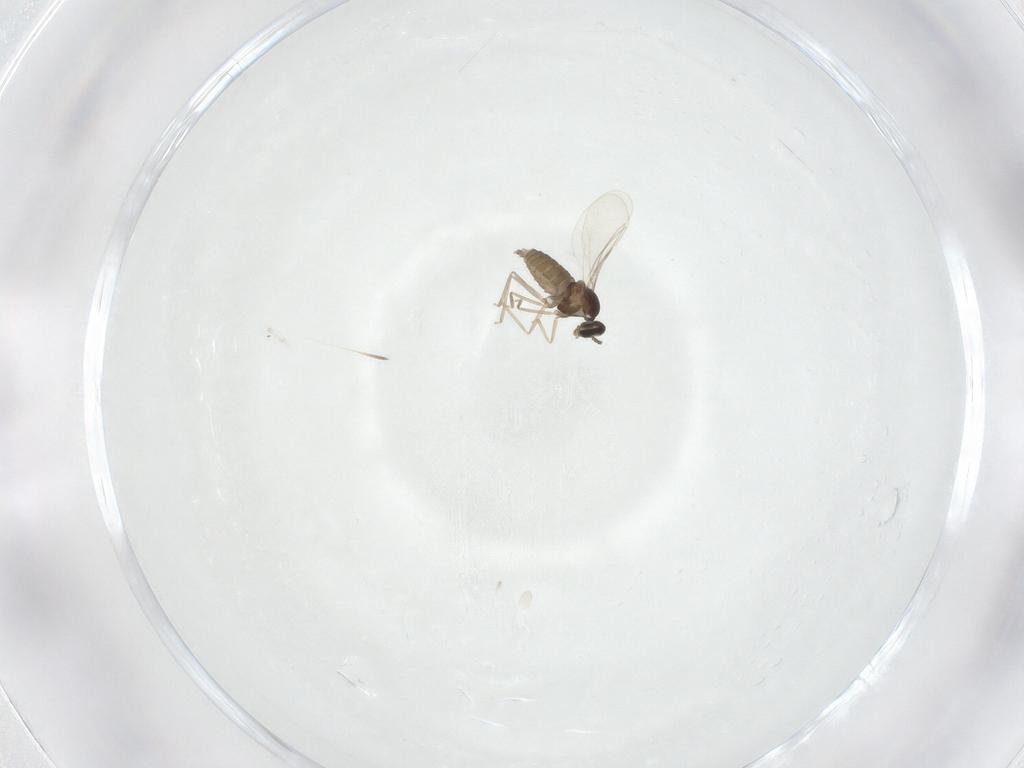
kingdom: Animalia
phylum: Arthropoda
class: Insecta
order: Diptera
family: Cecidomyiidae
